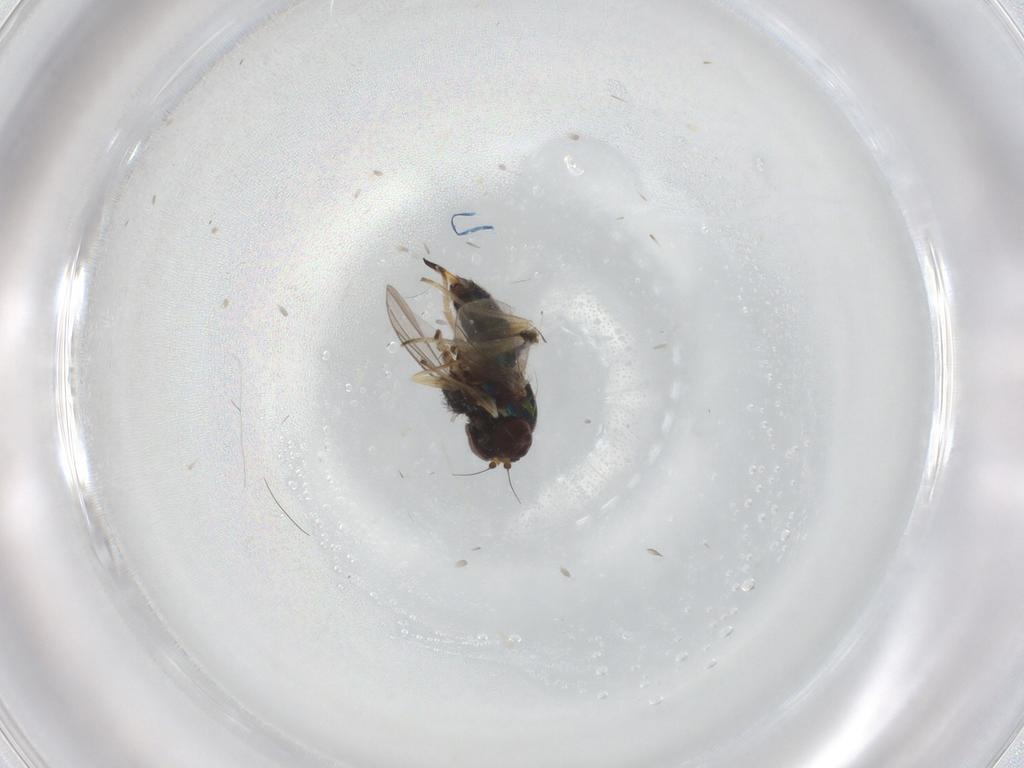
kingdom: Animalia
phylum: Arthropoda
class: Insecta
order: Diptera
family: Dolichopodidae
